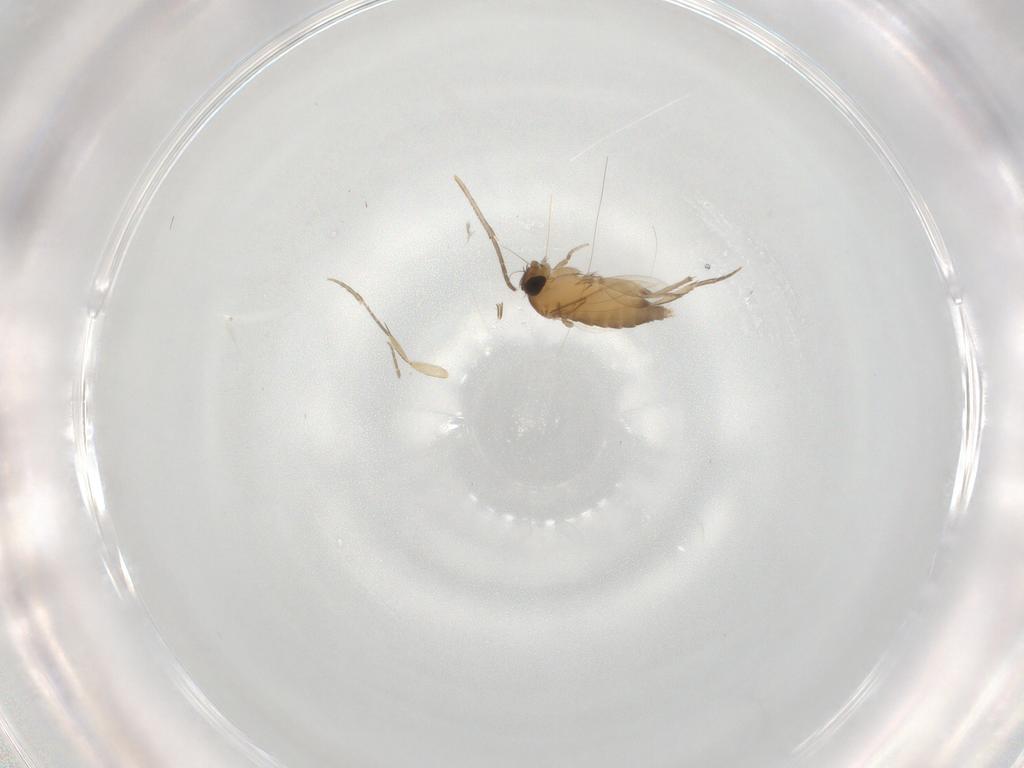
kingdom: Animalia
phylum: Arthropoda
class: Insecta
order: Diptera
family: Phoridae
